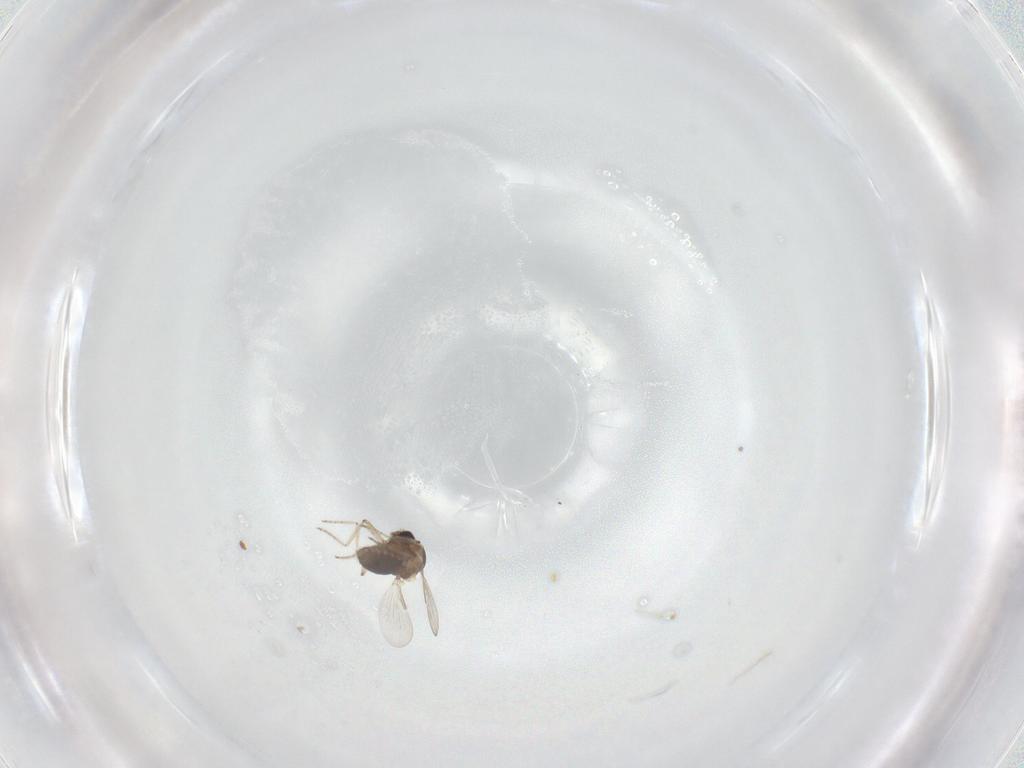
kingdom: Animalia
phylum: Arthropoda
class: Insecta
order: Diptera
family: Ceratopogonidae
